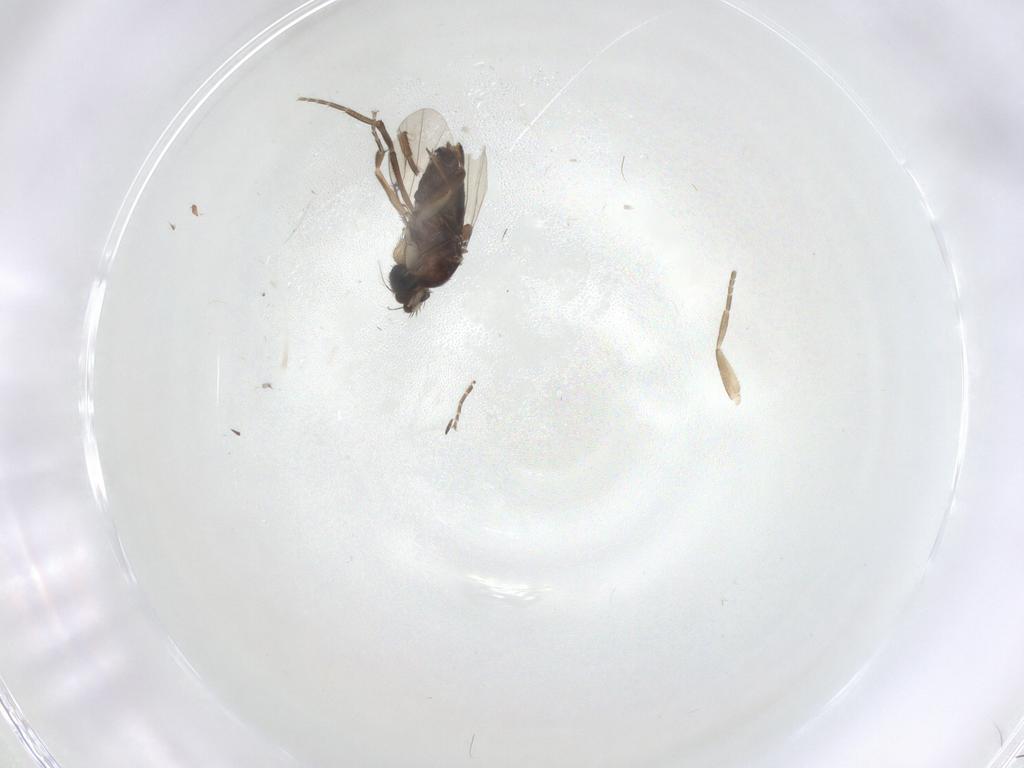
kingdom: Animalia
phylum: Arthropoda
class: Insecta
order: Diptera
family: Phoridae
